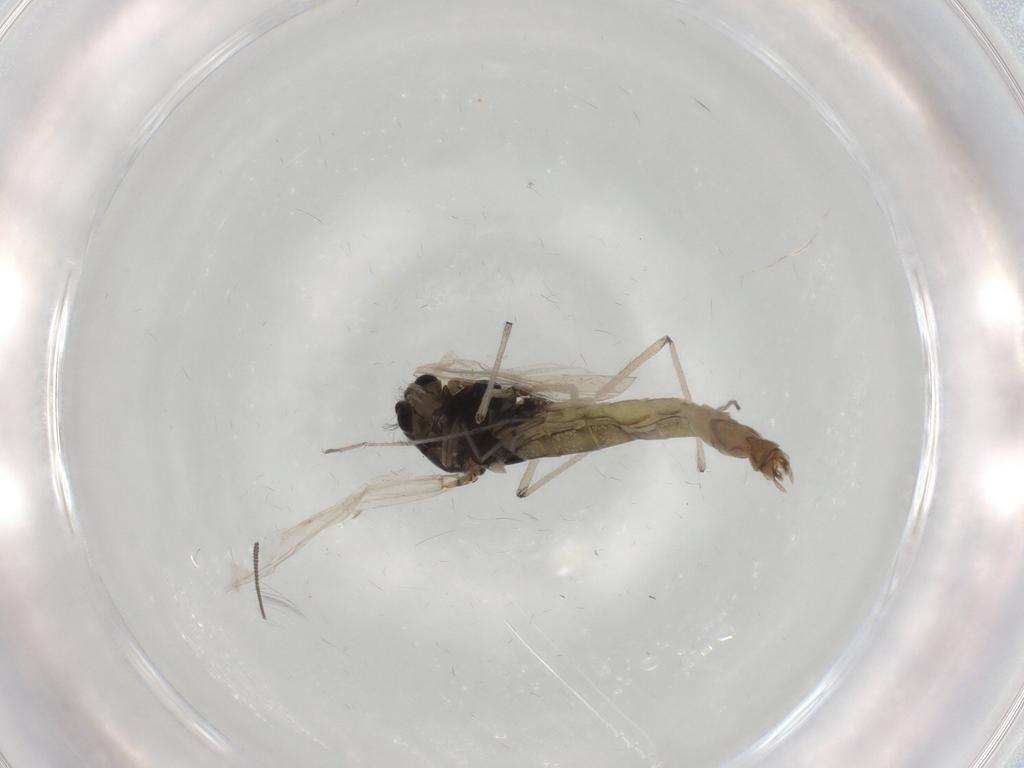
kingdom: Animalia
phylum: Arthropoda
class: Insecta
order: Diptera
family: Chironomidae
